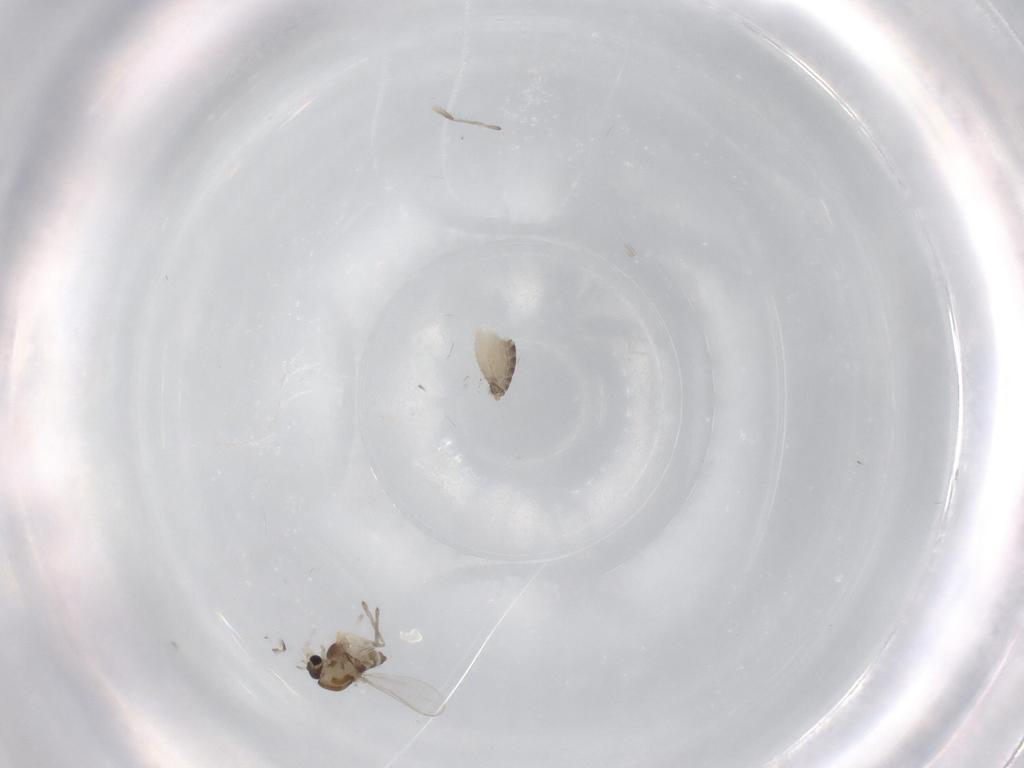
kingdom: Animalia
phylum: Arthropoda
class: Insecta
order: Diptera
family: Chironomidae
